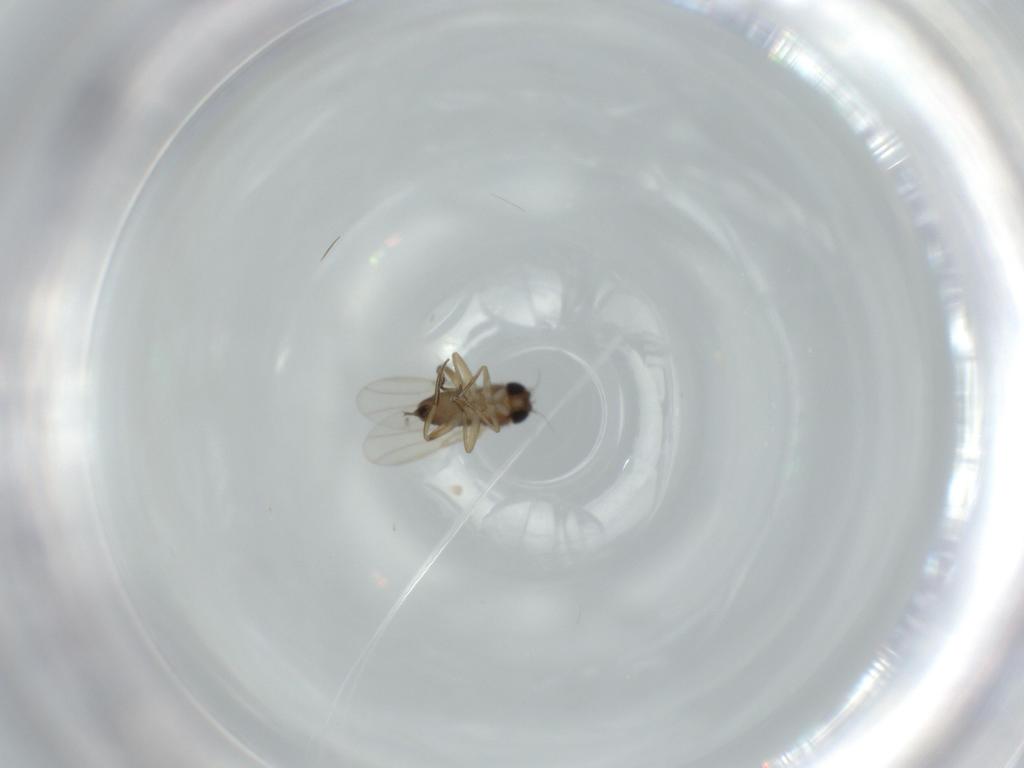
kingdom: Animalia
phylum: Arthropoda
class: Insecta
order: Diptera
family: Phoridae
